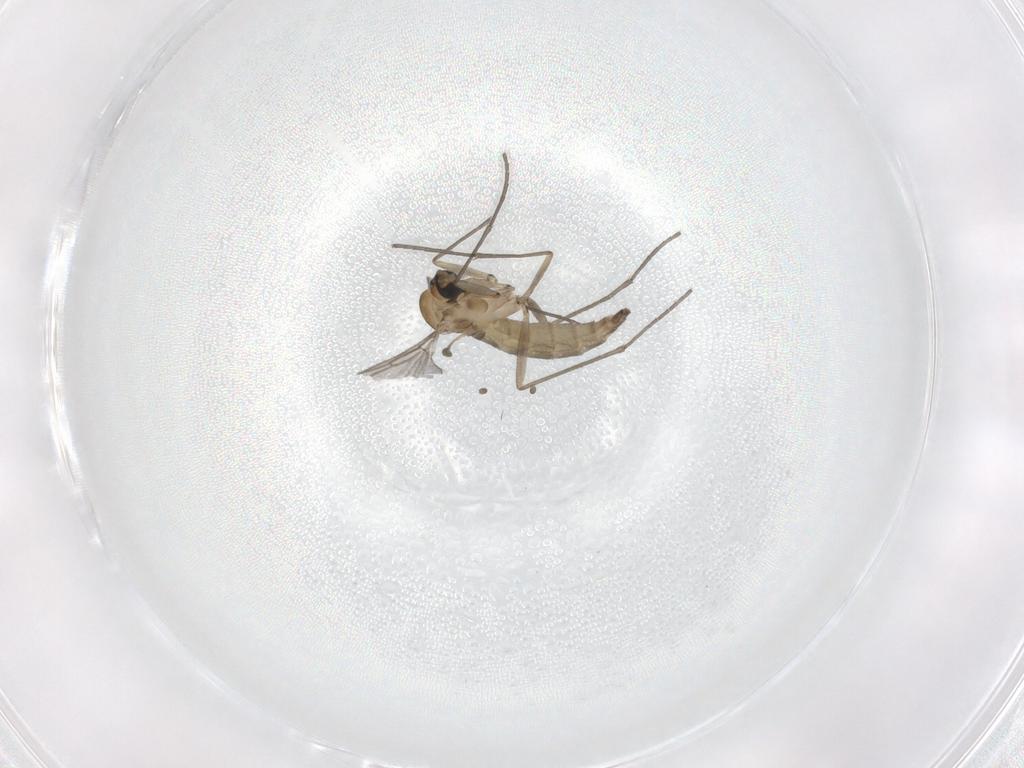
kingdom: Animalia
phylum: Arthropoda
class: Insecta
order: Diptera
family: Sciaridae
